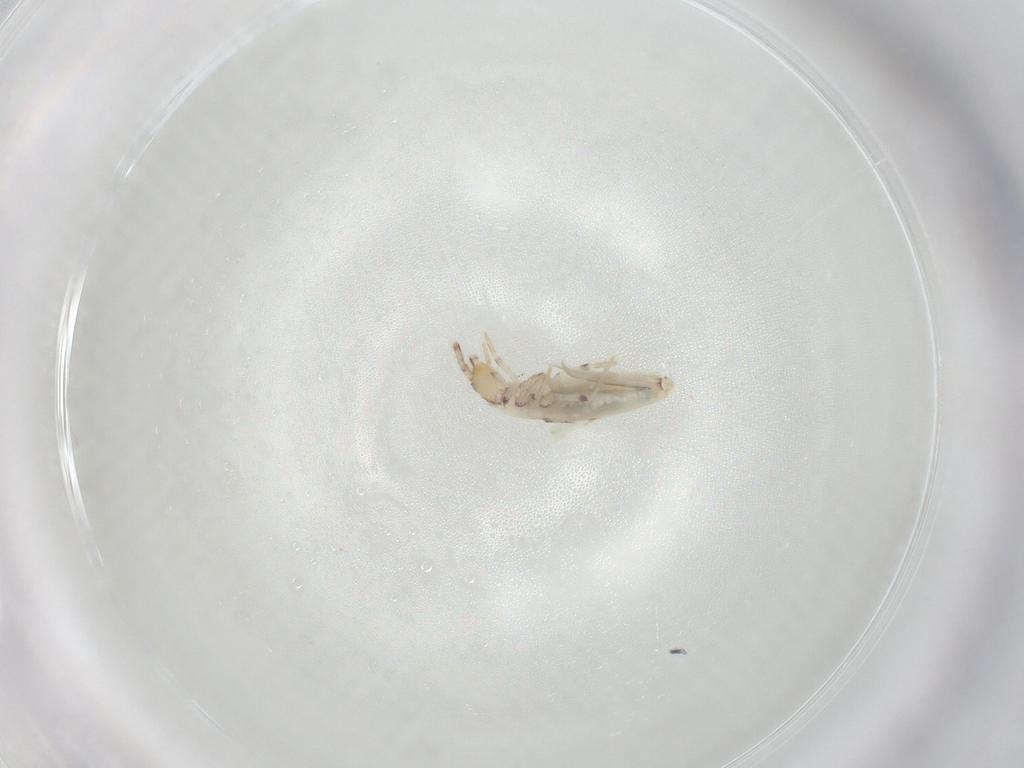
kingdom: Animalia
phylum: Arthropoda
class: Collembola
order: Entomobryomorpha
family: Entomobryidae
